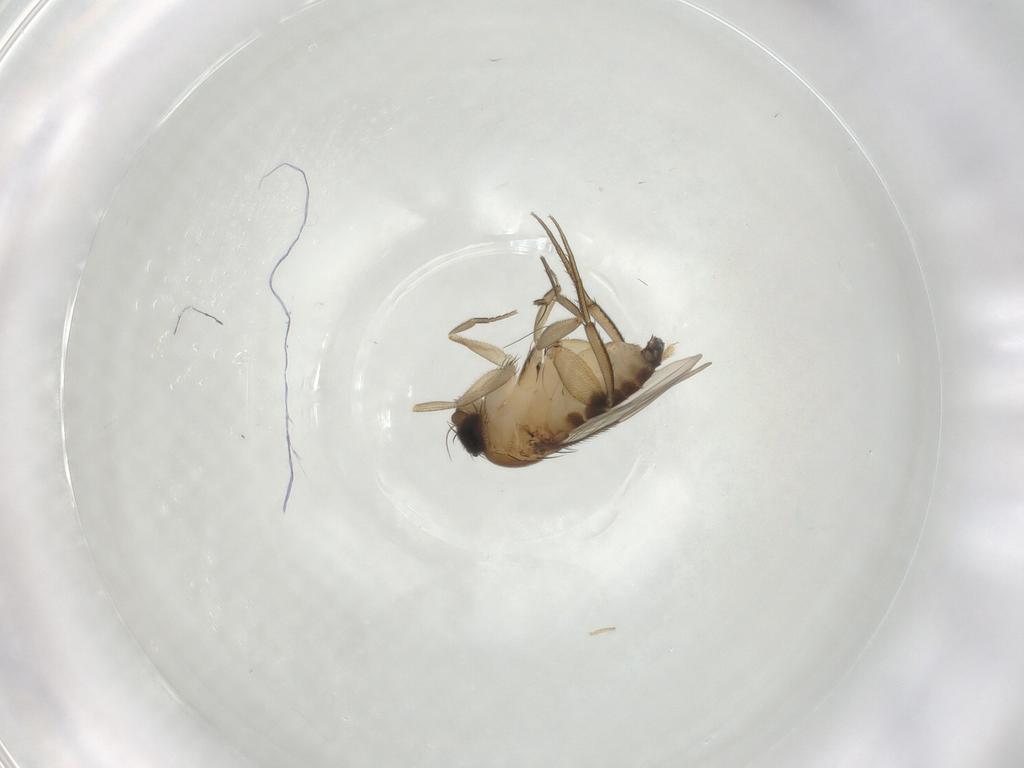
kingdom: Animalia
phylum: Arthropoda
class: Insecta
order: Diptera
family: Phoridae
